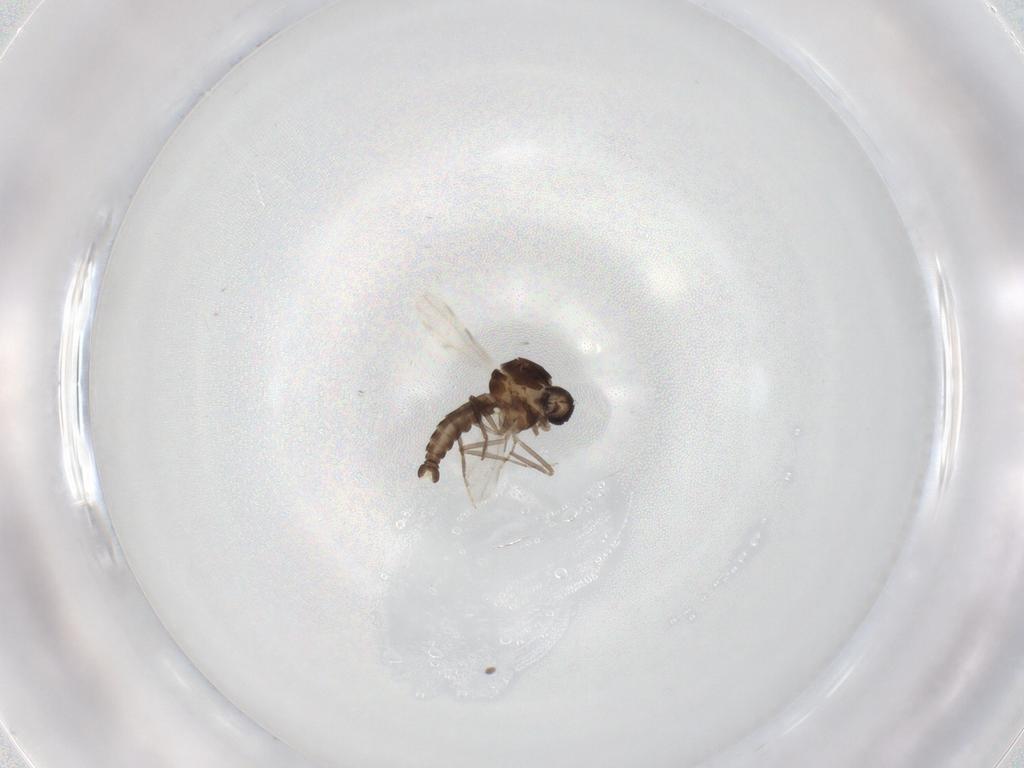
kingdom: Animalia
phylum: Arthropoda
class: Insecta
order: Diptera
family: Ceratopogonidae
